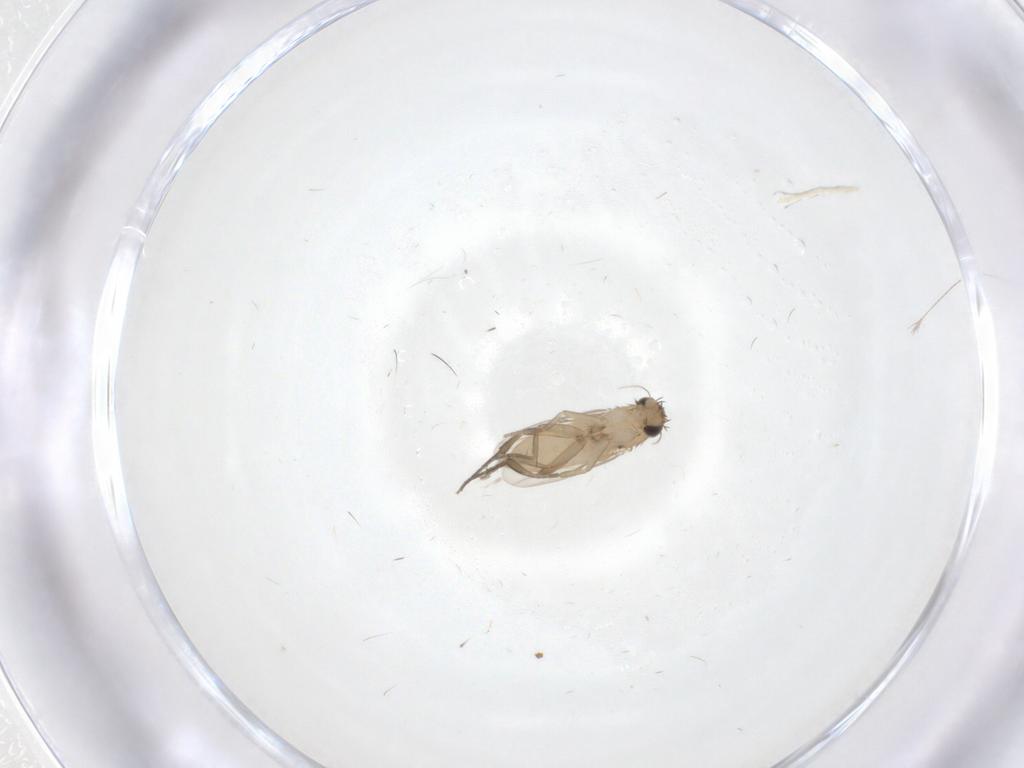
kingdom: Animalia
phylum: Arthropoda
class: Insecta
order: Diptera
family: Phoridae
